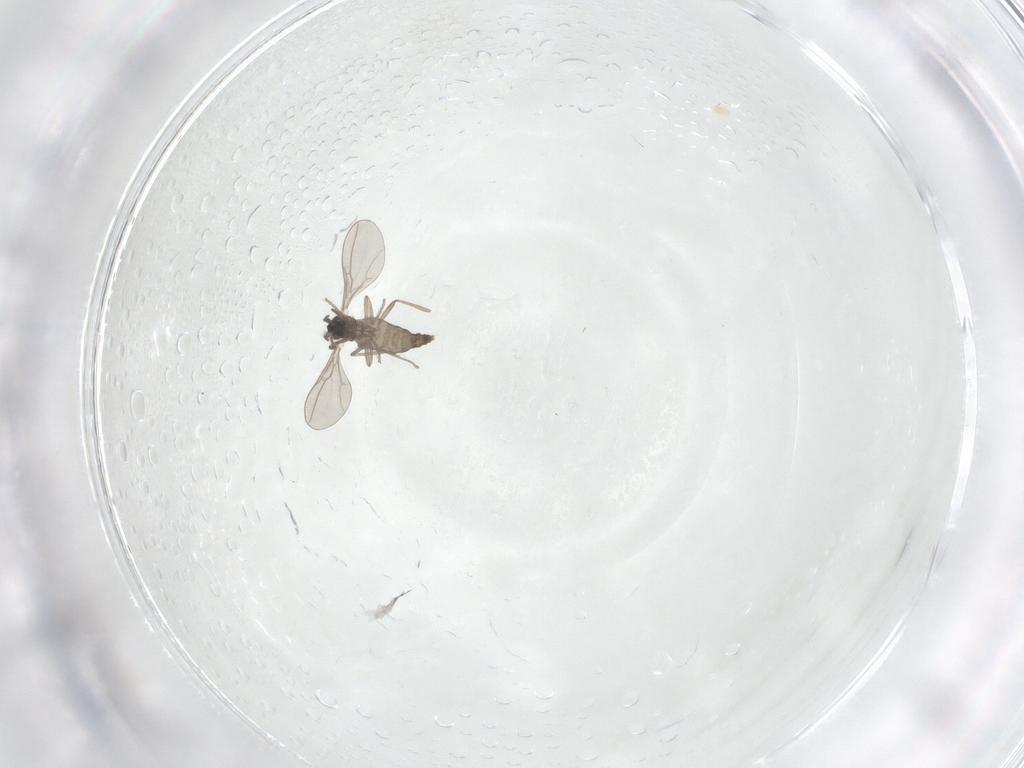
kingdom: Animalia
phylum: Arthropoda
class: Insecta
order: Diptera
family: Cecidomyiidae
